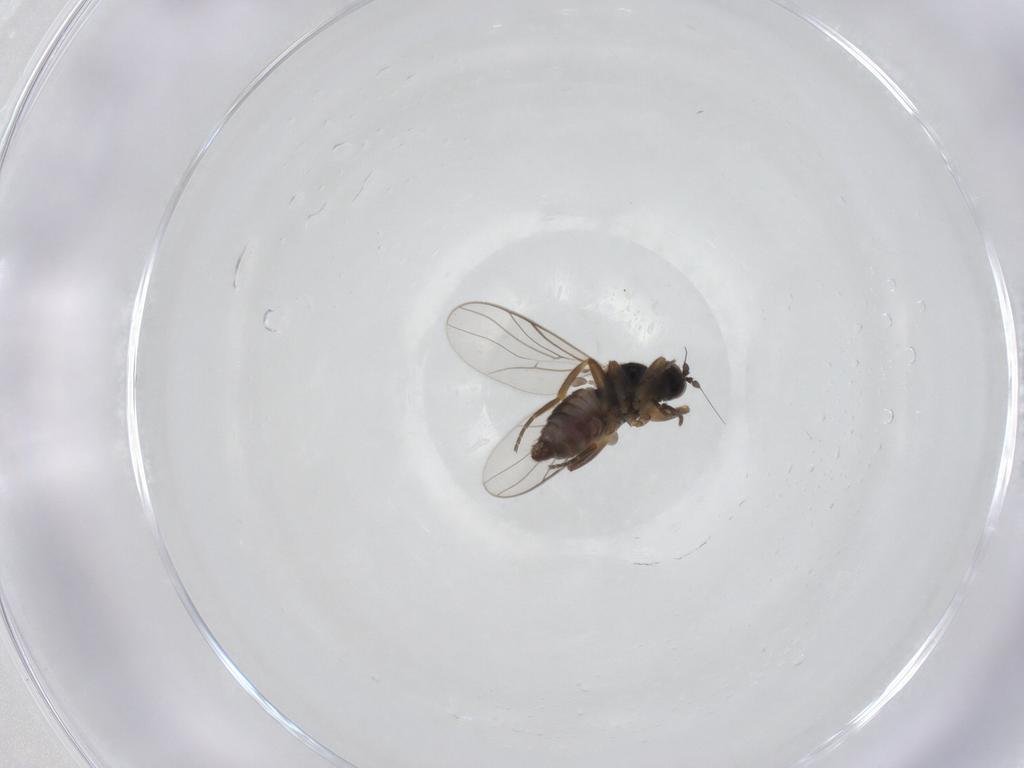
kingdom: Animalia
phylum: Arthropoda
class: Insecta
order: Diptera
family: Hybotidae
